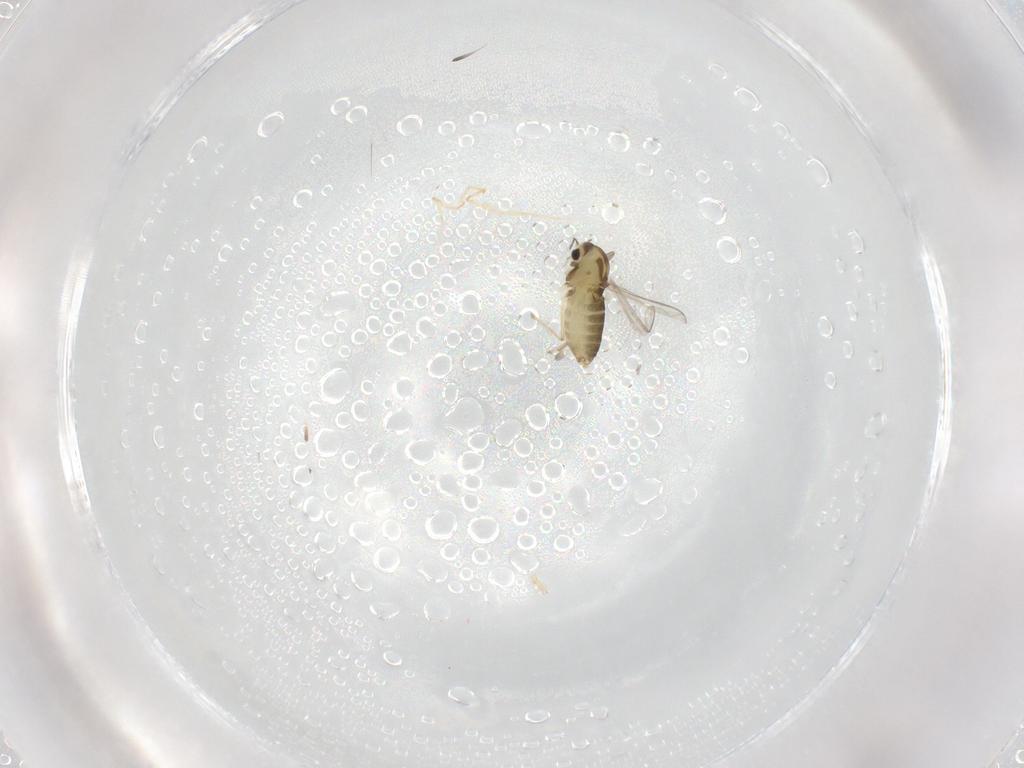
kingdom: Animalia
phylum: Arthropoda
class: Insecta
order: Diptera
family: Chironomidae
